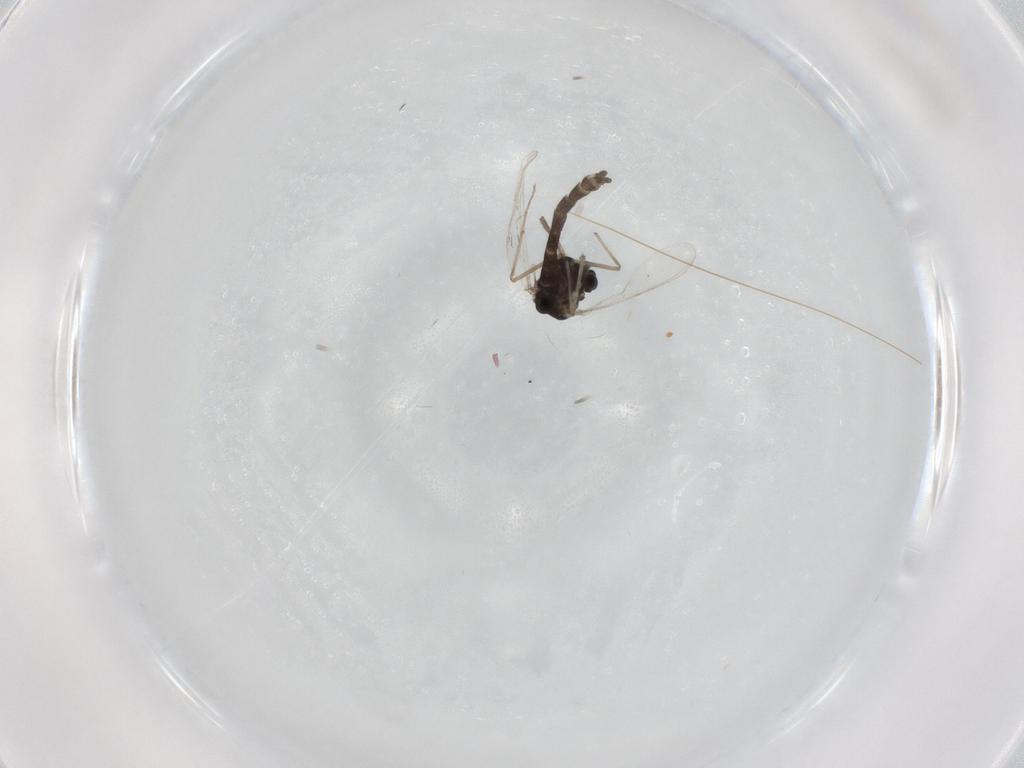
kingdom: Animalia
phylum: Arthropoda
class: Insecta
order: Diptera
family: Chironomidae
